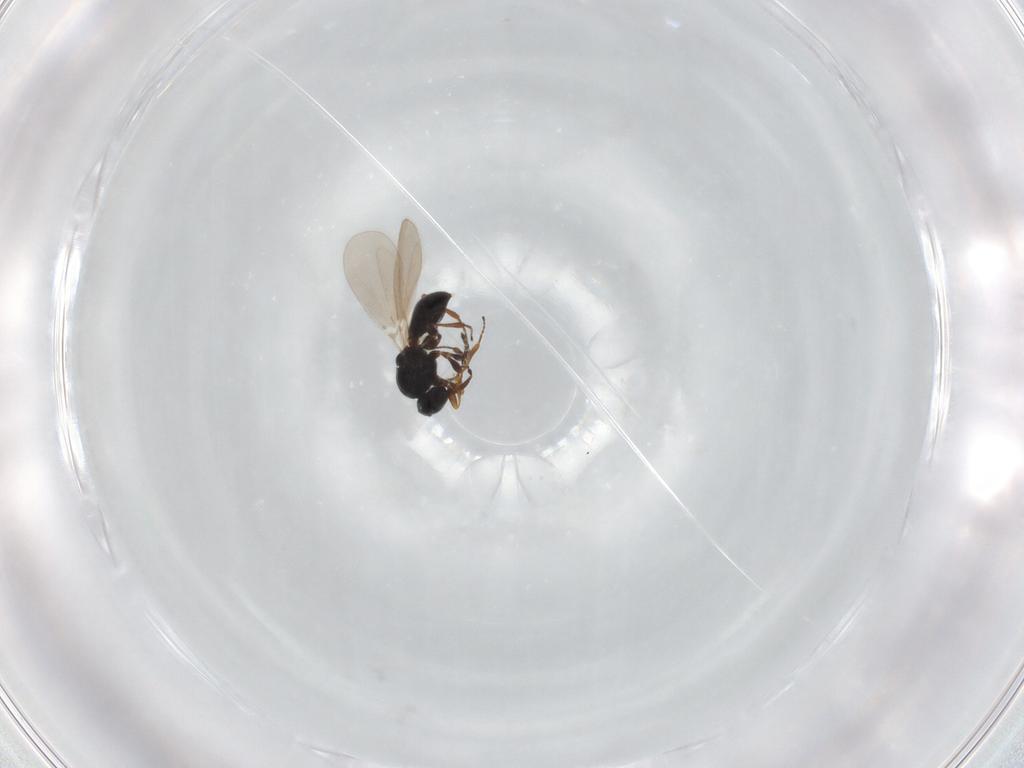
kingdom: Animalia
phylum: Arthropoda
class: Insecta
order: Hymenoptera
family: Platygastridae
